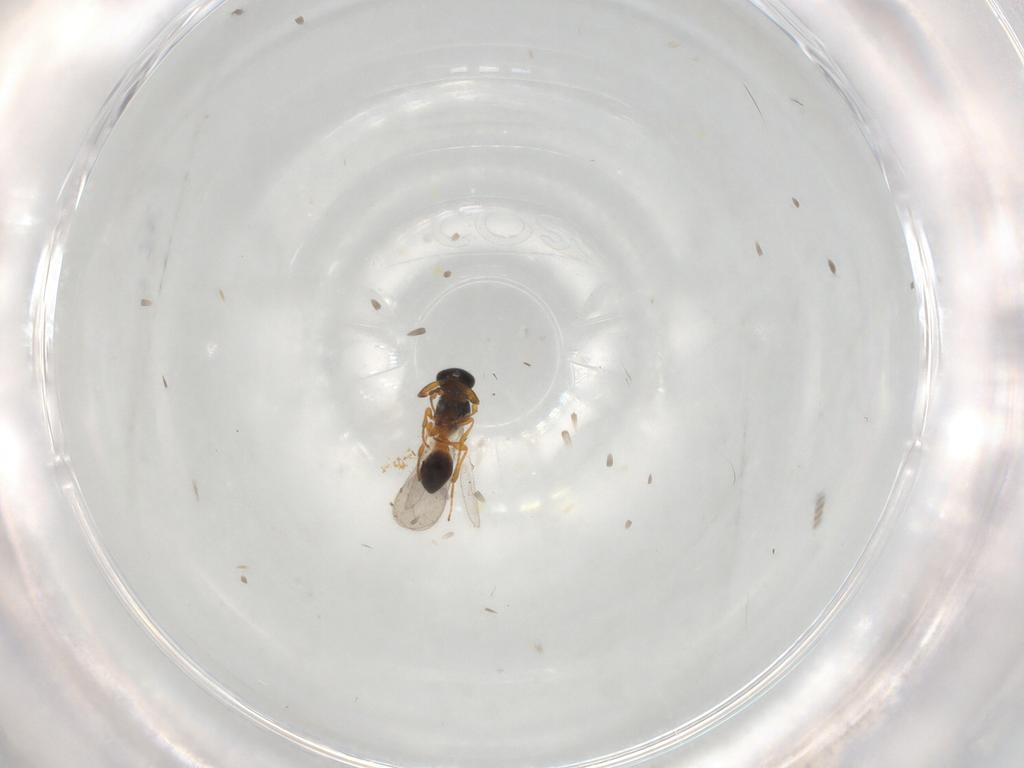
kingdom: Animalia
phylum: Arthropoda
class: Insecta
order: Hymenoptera
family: Platygastridae
